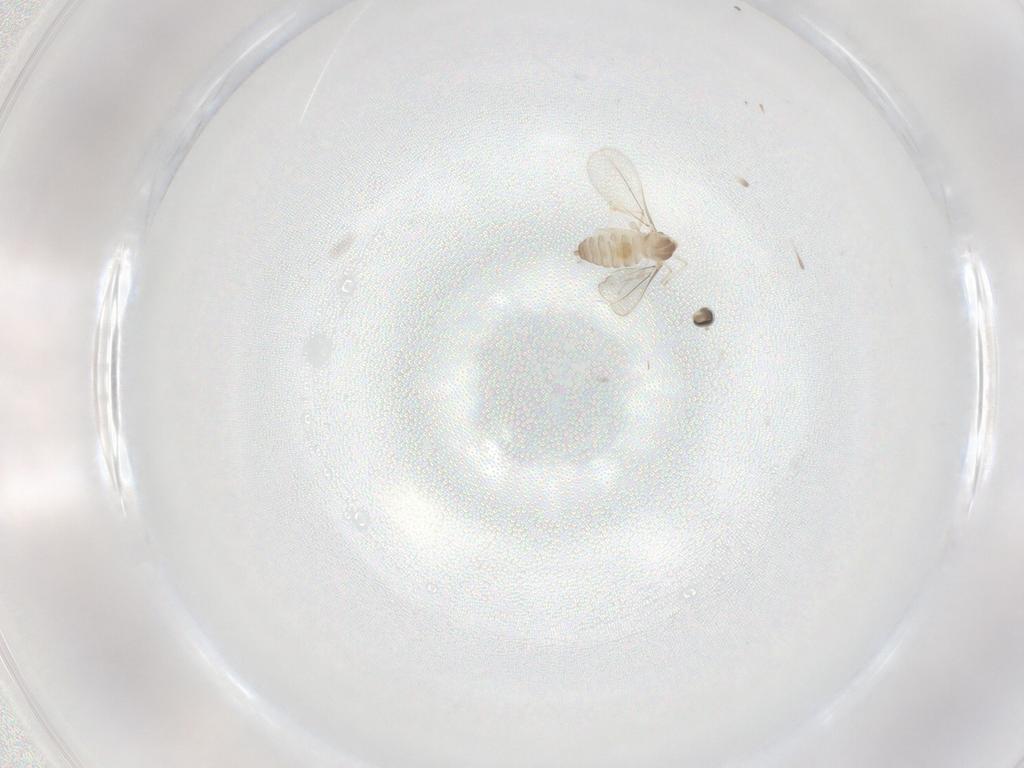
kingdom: Animalia
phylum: Arthropoda
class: Insecta
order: Diptera
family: Cecidomyiidae
